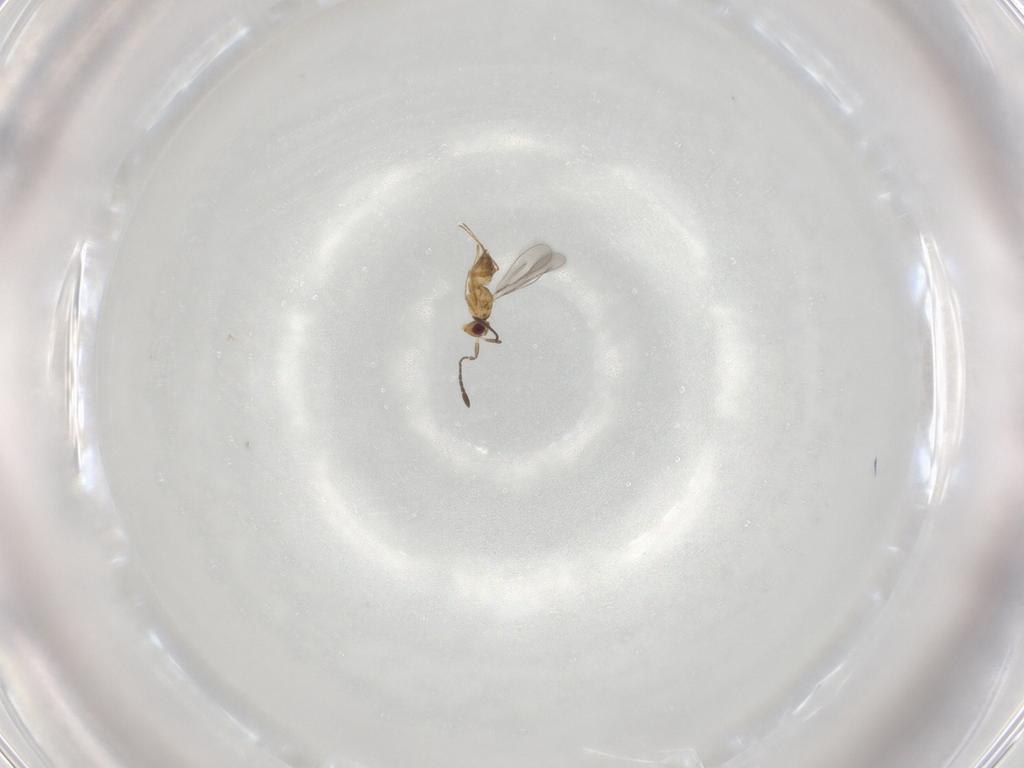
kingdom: Animalia
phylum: Arthropoda
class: Insecta
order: Hymenoptera
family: Mymaridae
